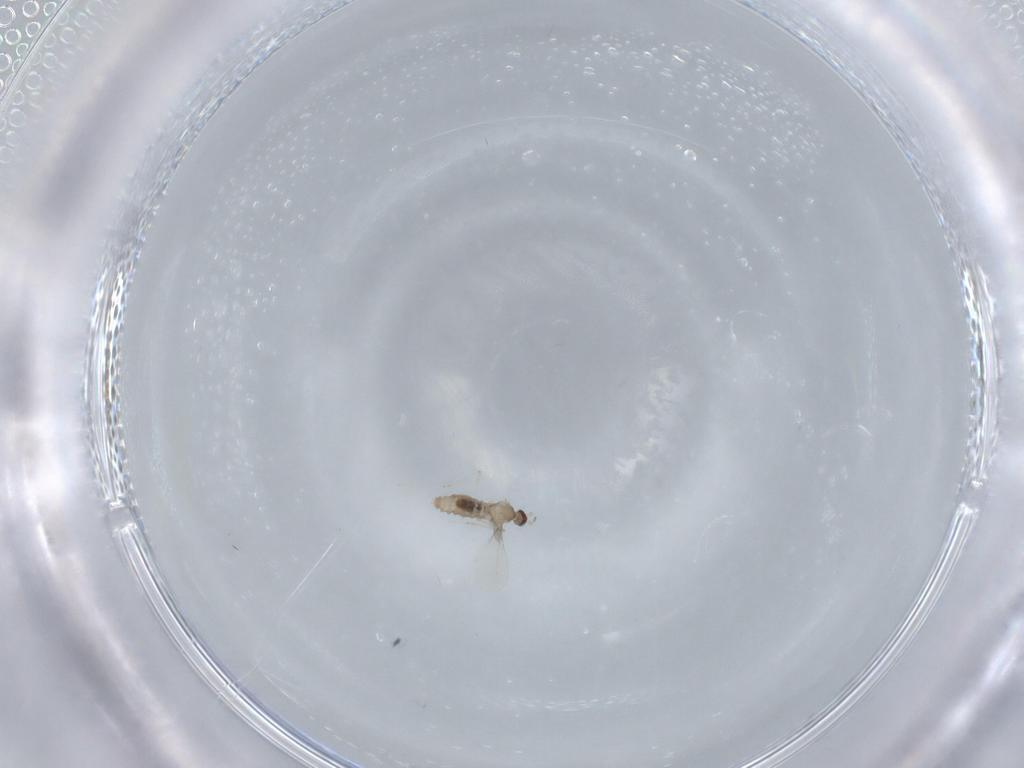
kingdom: Animalia
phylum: Arthropoda
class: Insecta
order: Diptera
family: Cecidomyiidae
